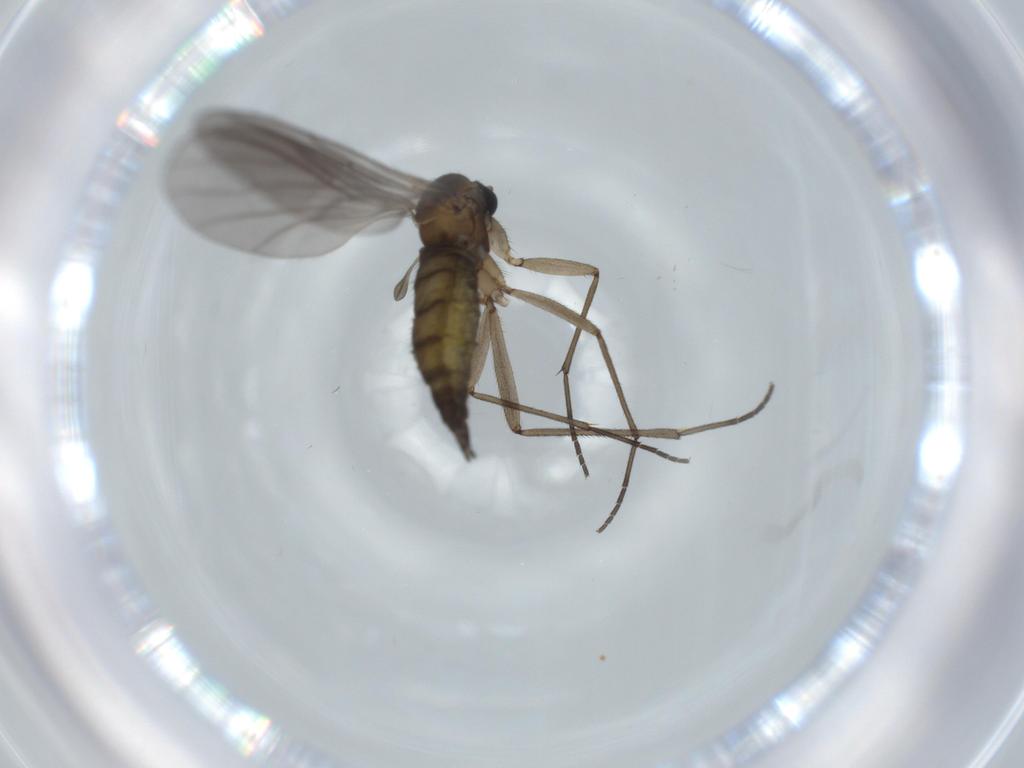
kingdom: Animalia
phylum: Arthropoda
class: Insecta
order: Diptera
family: Sciaridae
